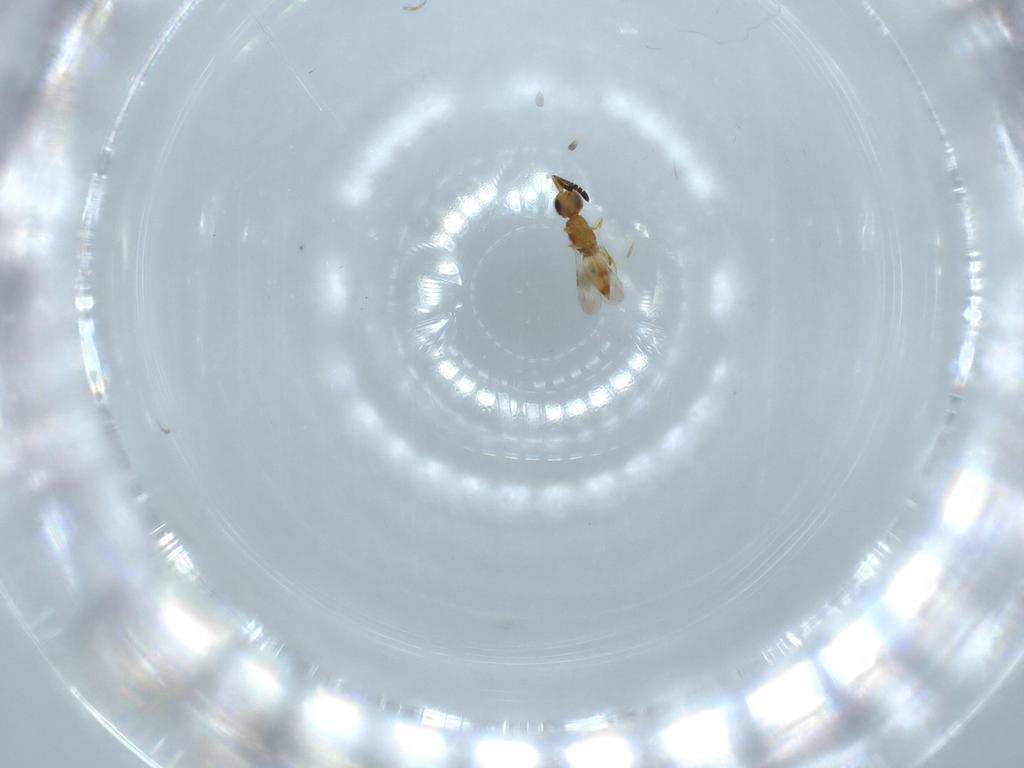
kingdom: Animalia
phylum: Arthropoda
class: Insecta
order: Hymenoptera
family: Ceraphronidae
